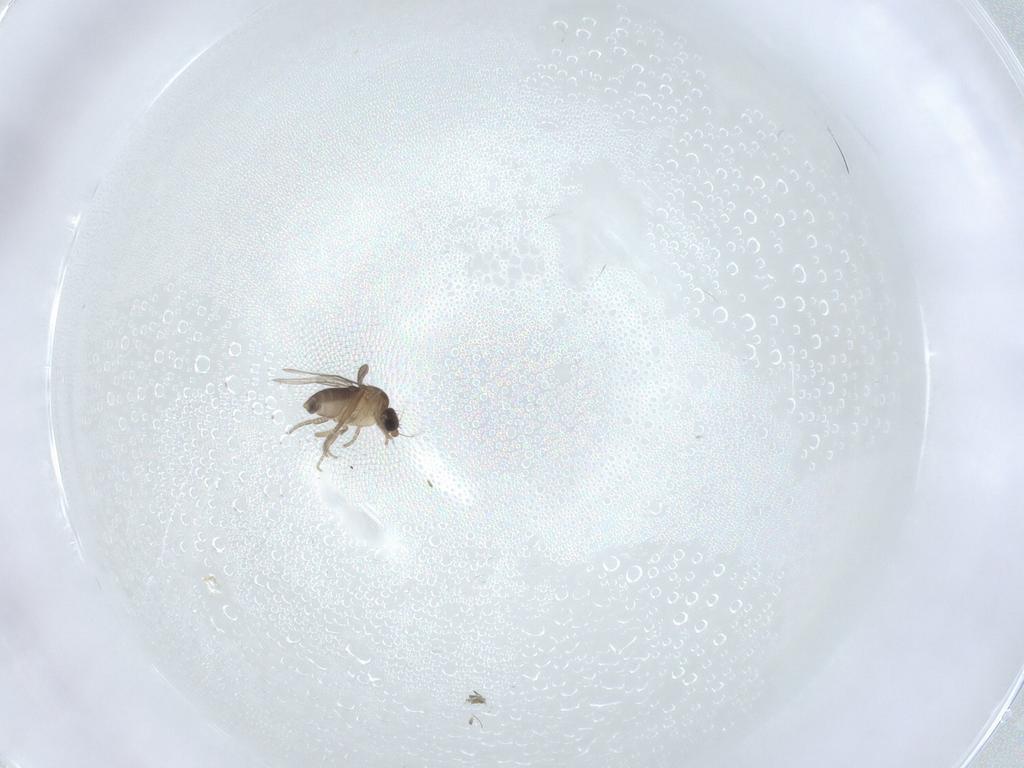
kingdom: Animalia
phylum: Arthropoda
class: Insecta
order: Diptera
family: Phoridae
